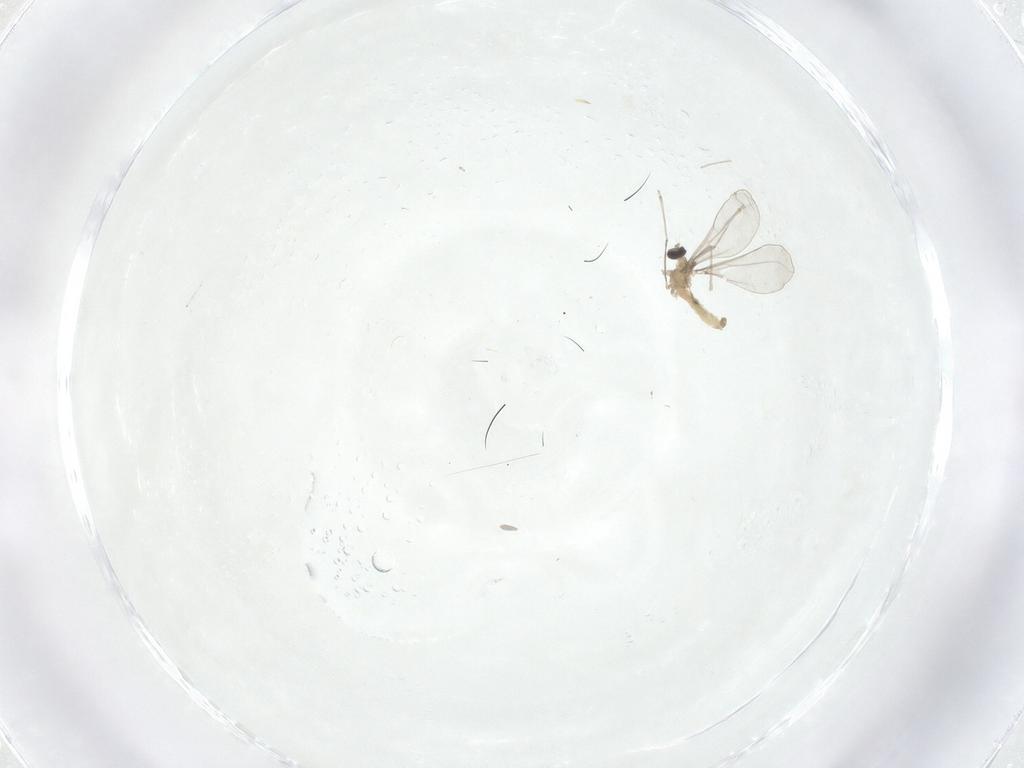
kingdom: Animalia
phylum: Arthropoda
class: Insecta
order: Diptera
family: Cecidomyiidae
